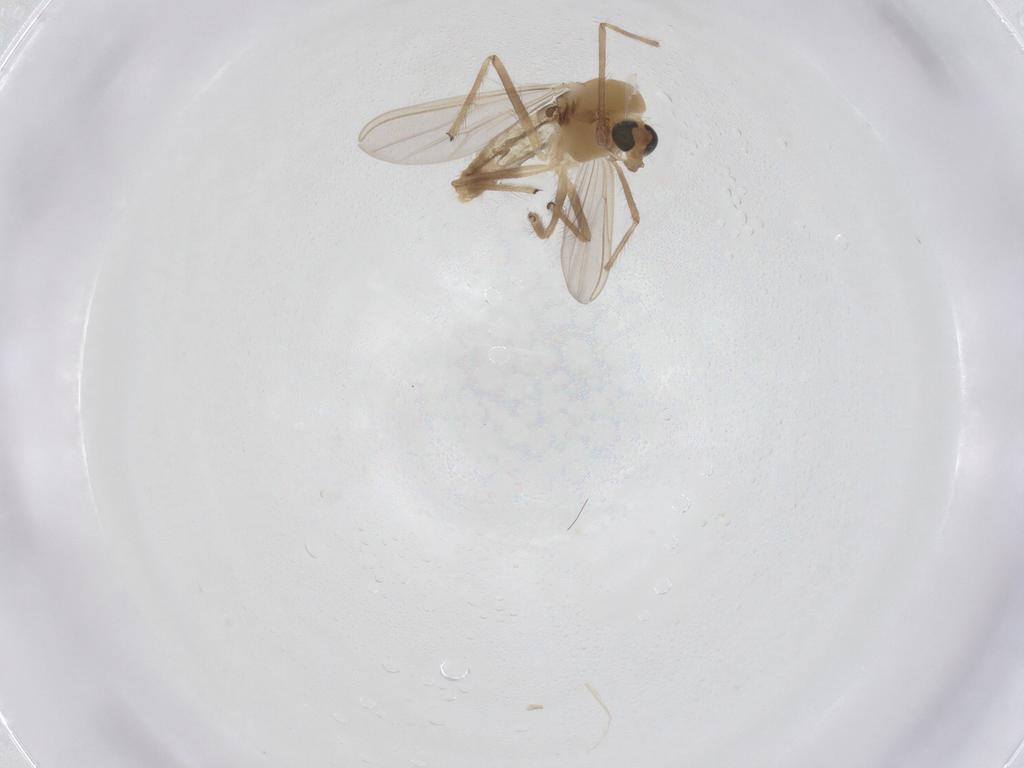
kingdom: Animalia
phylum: Arthropoda
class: Insecta
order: Diptera
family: Chironomidae
